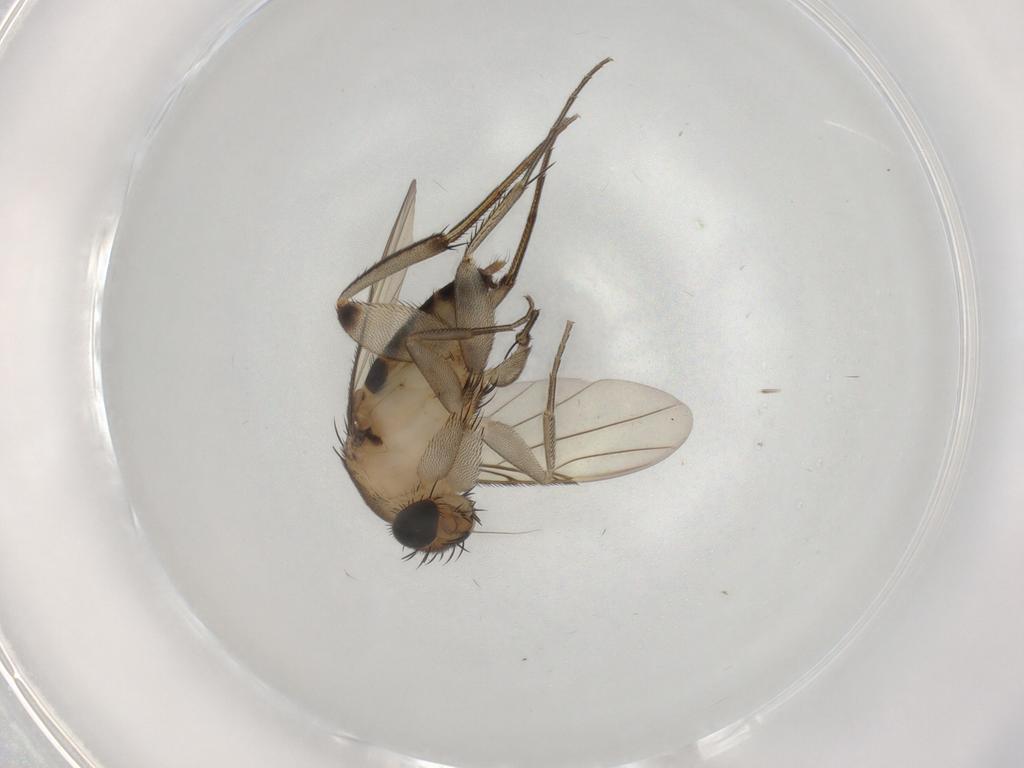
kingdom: Animalia
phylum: Arthropoda
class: Insecta
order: Diptera
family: Phoridae
